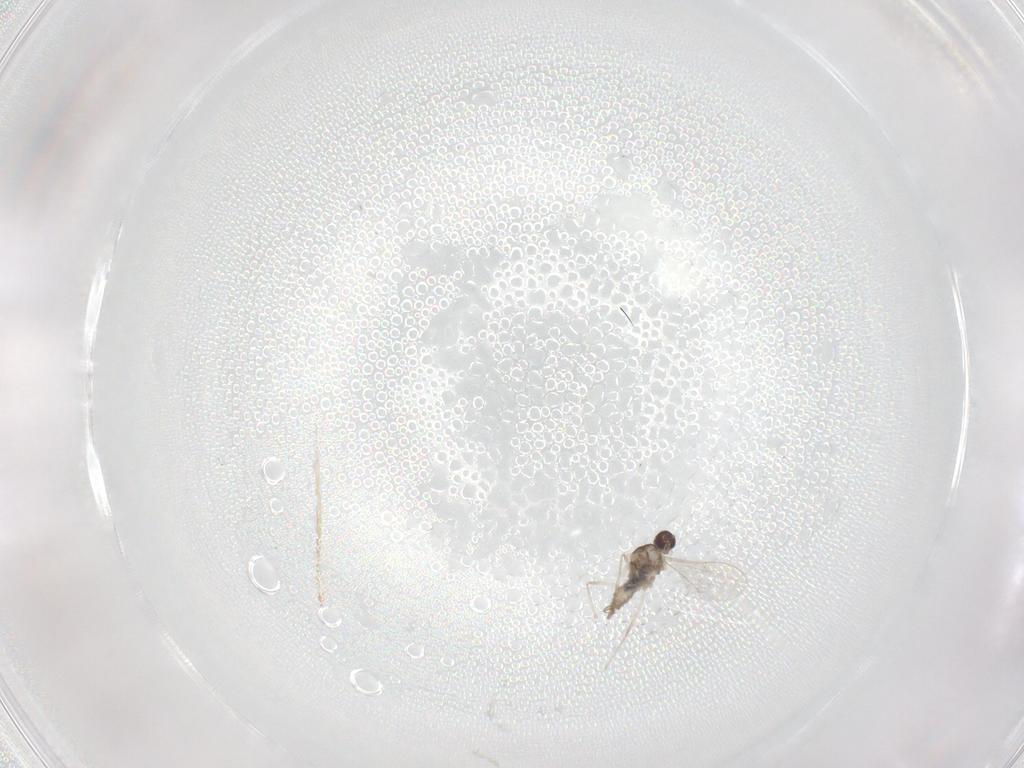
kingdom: Animalia
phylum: Arthropoda
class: Insecta
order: Diptera
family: Cecidomyiidae
